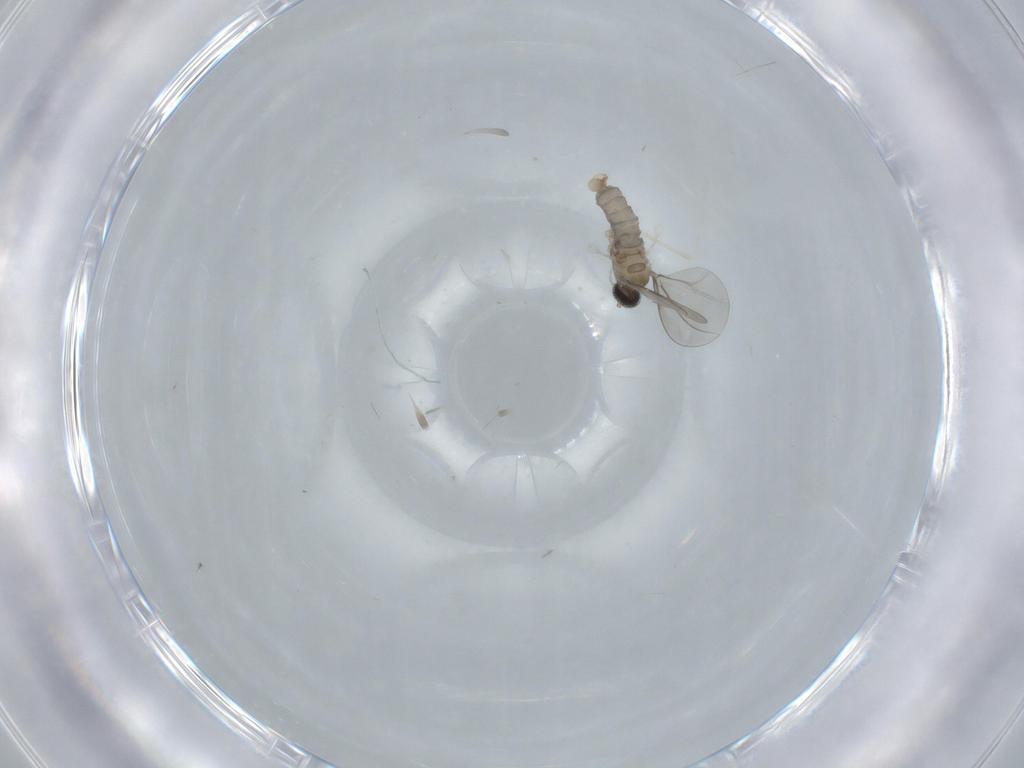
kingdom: Animalia
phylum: Arthropoda
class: Insecta
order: Diptera
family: Cecidomyiidae
